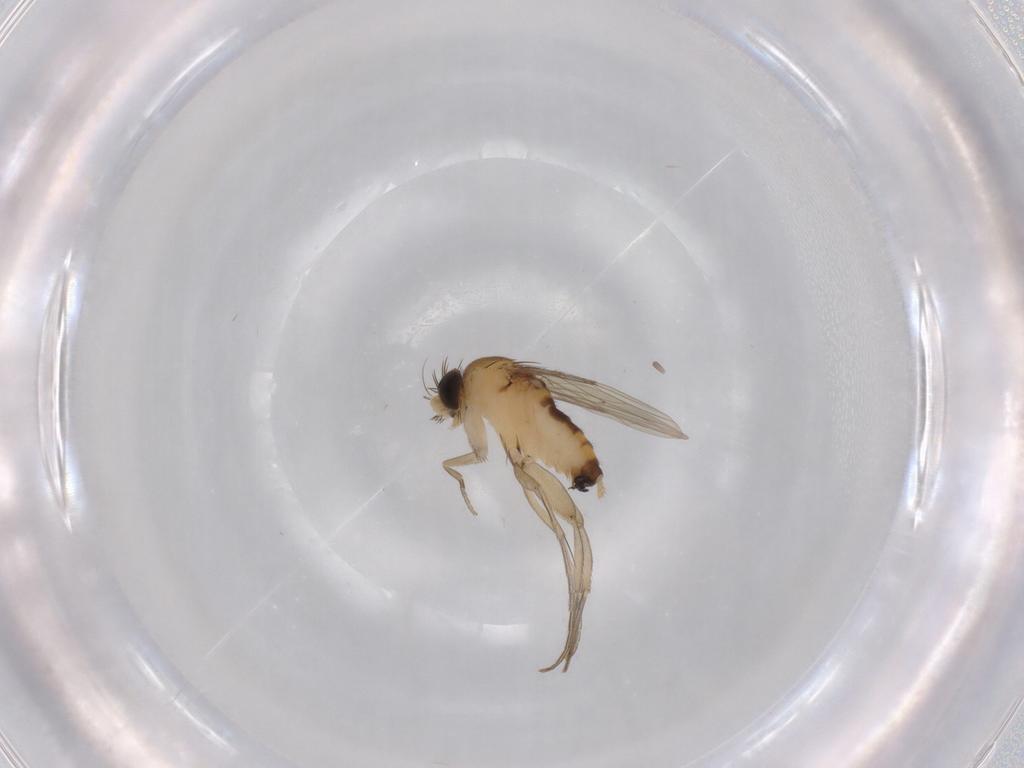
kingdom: Animalia
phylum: Arthropoda
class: Insecta
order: Diptera
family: Phoridae
